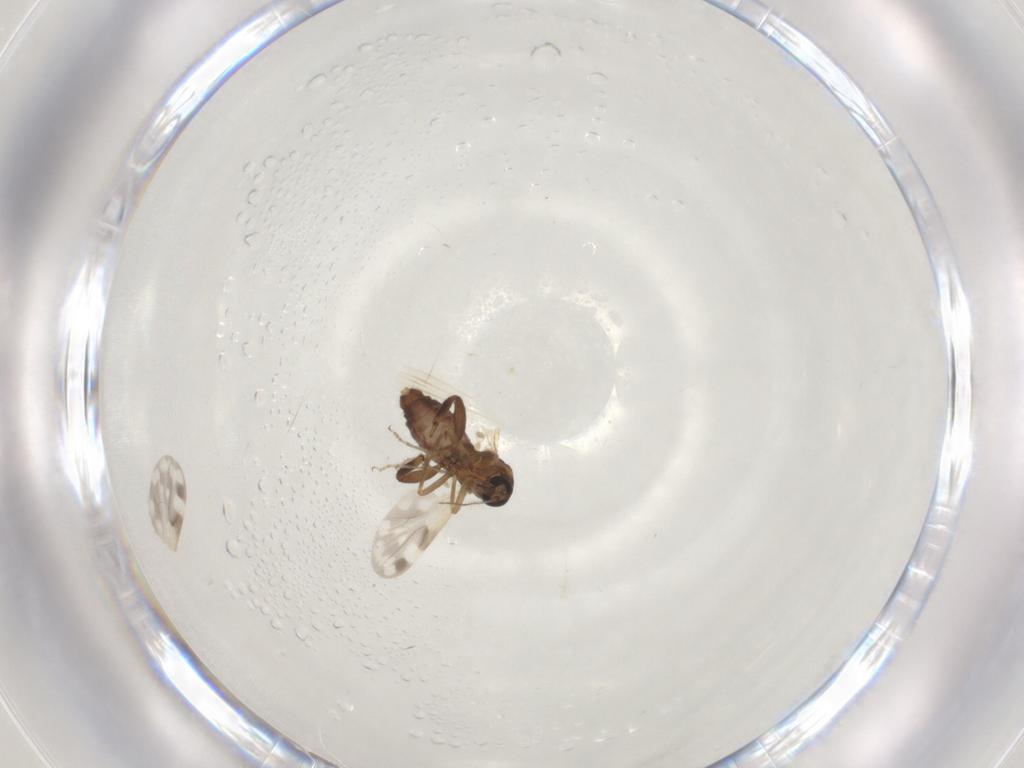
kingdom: Animalia
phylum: Arthropoda
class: Insecta
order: Diptera
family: Ceratopogonidae
